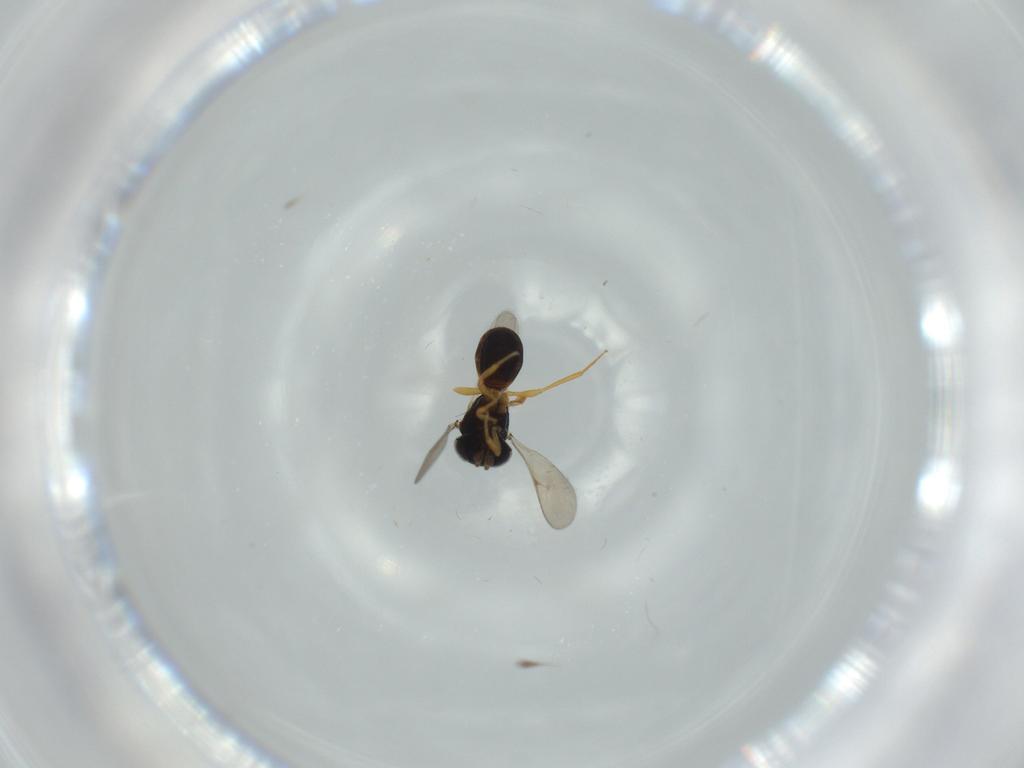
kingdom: Animalia
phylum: Arthropoda
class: Insecta
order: Hymenoptera
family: Scelionidae
